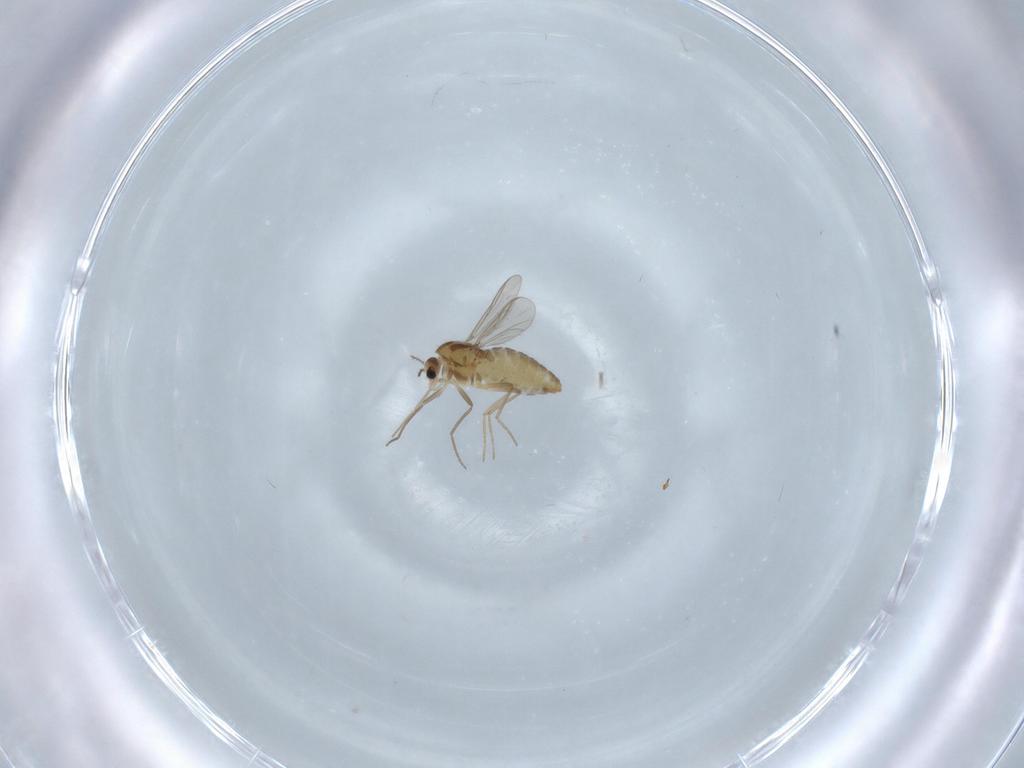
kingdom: Animalia
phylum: Arthropoda
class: Insecta
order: Diptera
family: Chironomidae
